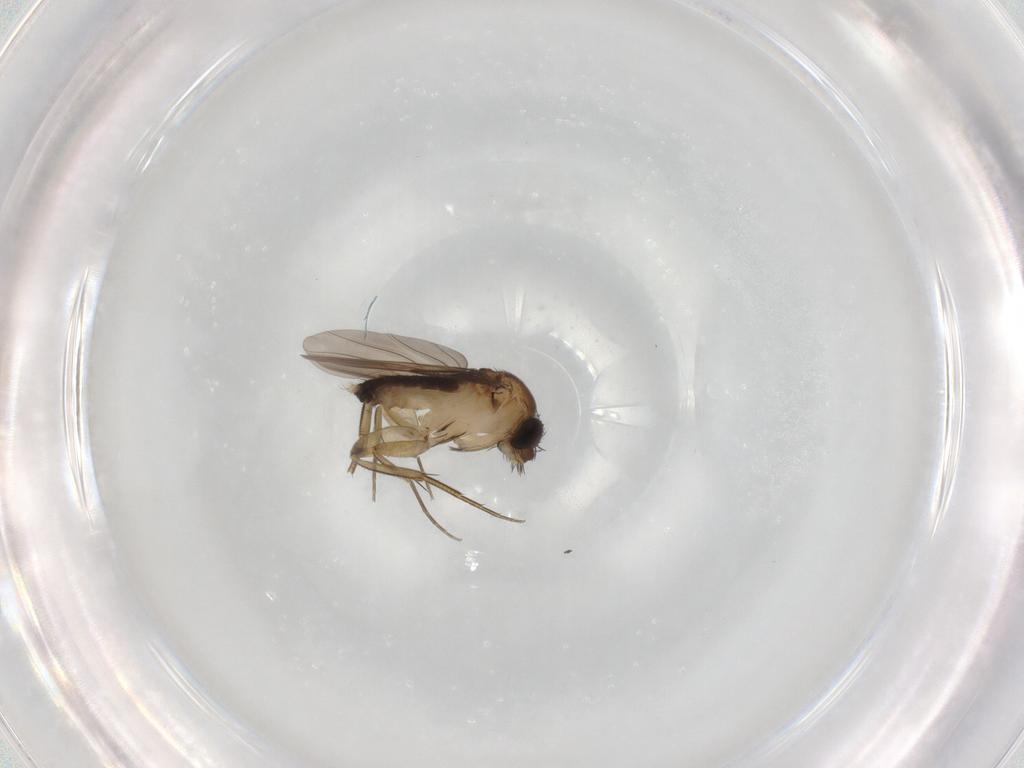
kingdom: Animalia
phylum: Arthropoda
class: Insecta
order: Diptera
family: Phoridae
